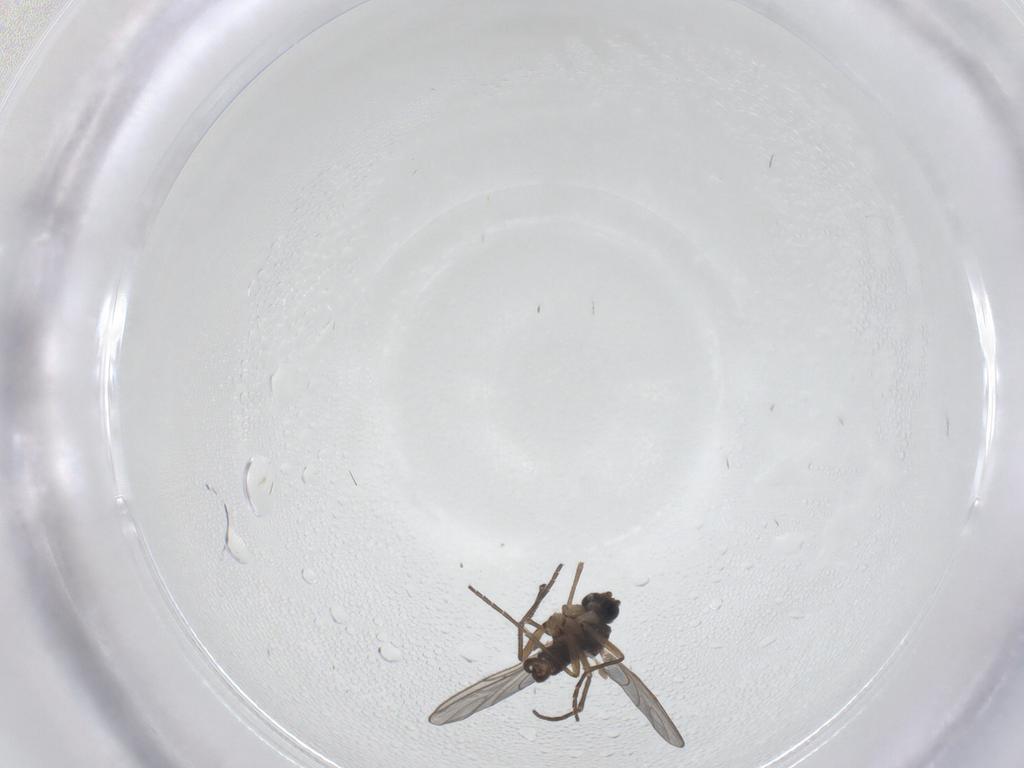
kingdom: Animalia
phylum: Arthropoda
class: Insecta
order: Diptera
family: Sciaridae
